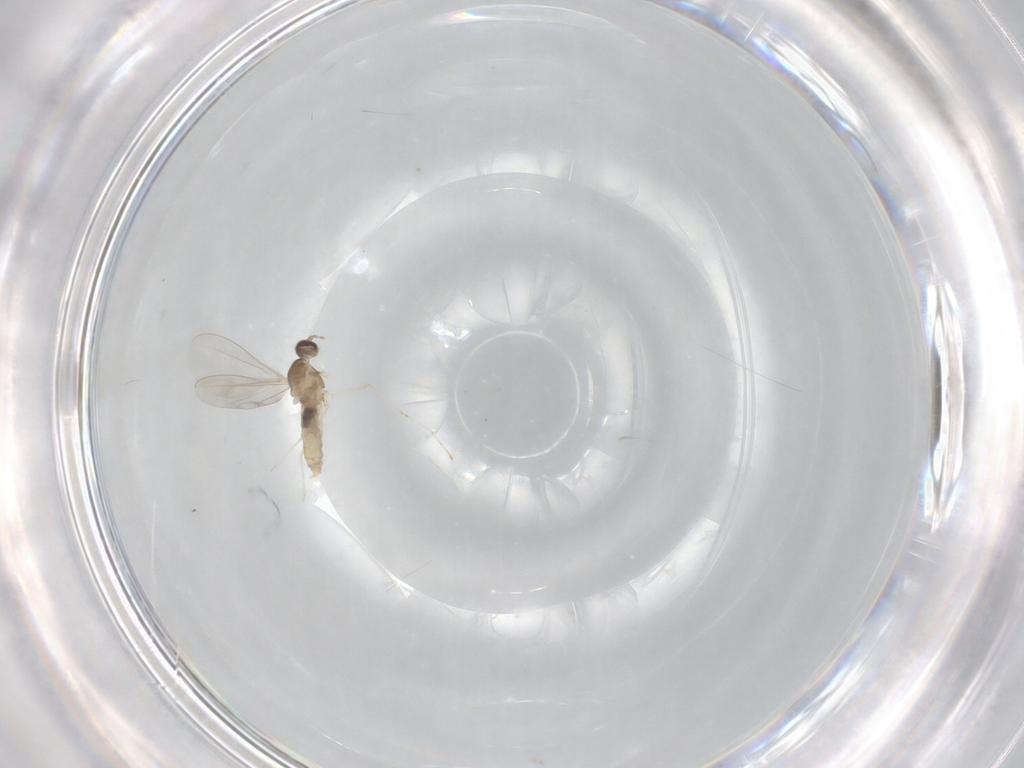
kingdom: Animalia
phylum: Arthropoda
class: Insecta
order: Diptera
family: Cecidomyiidae
